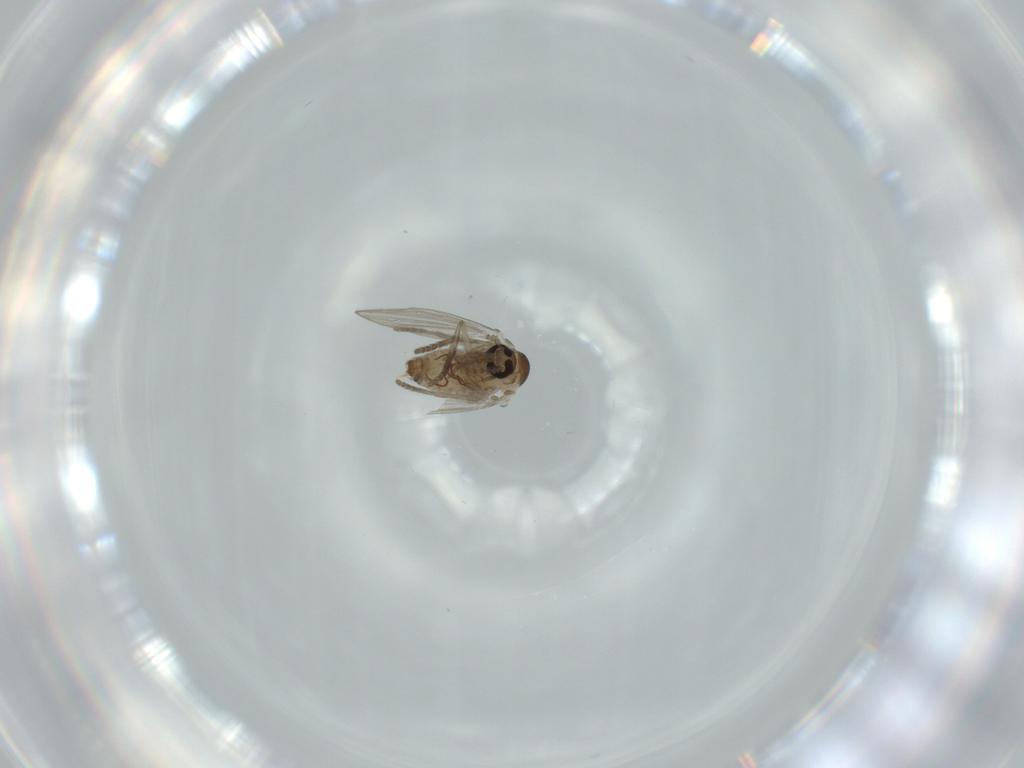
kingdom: Animalia
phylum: Arthropoda
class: Insecta
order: Diptera
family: Psychodidae
